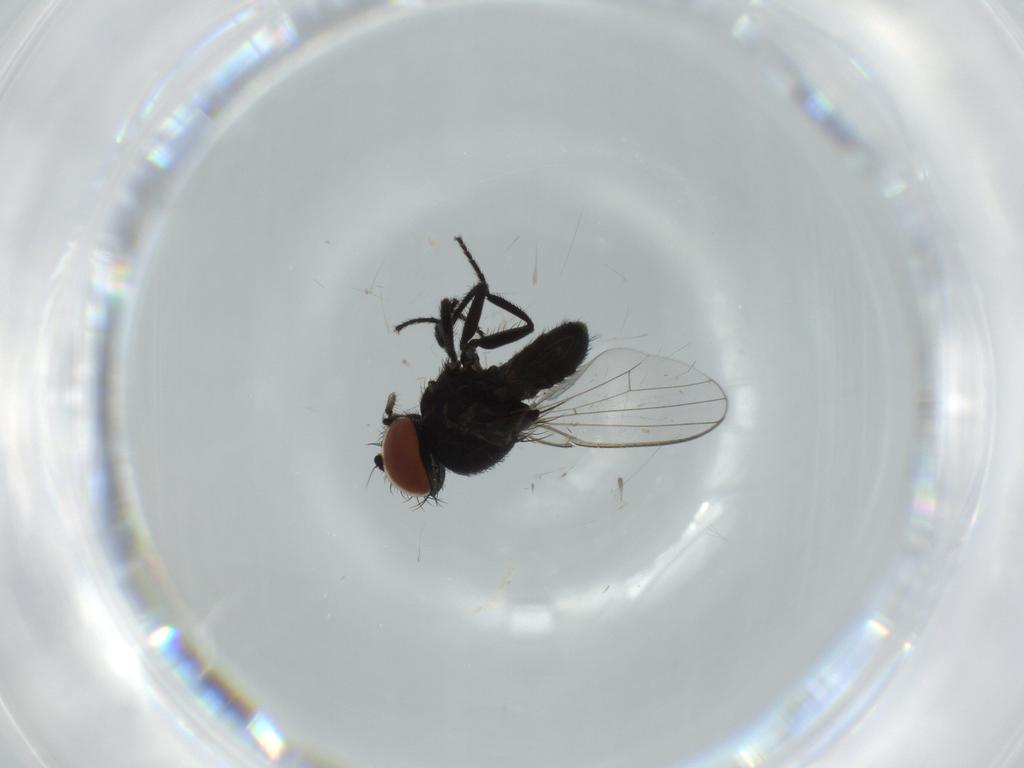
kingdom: Animalia
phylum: Arthropoda
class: Insecta
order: Diptera
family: Milichiidae
